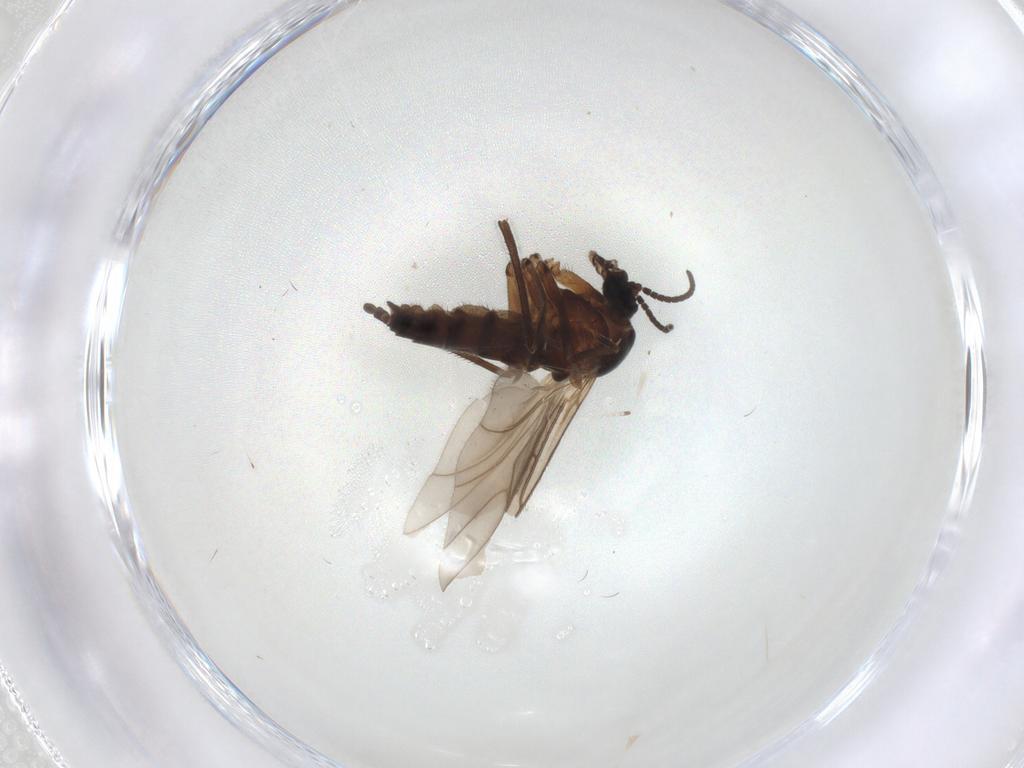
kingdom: Animalia
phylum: Arthropoda
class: Insecta
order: Diptera
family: Sciaridae
